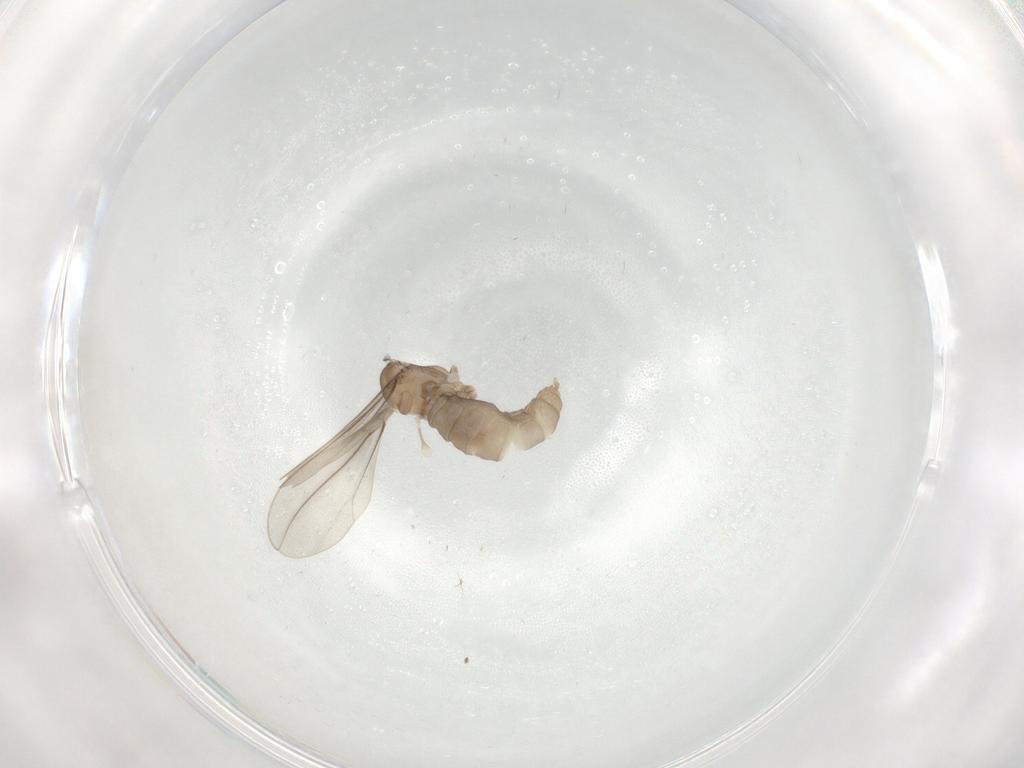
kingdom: Animalia
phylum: Arthropoda
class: Insecta
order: Diptera
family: Cecidomyiidae
